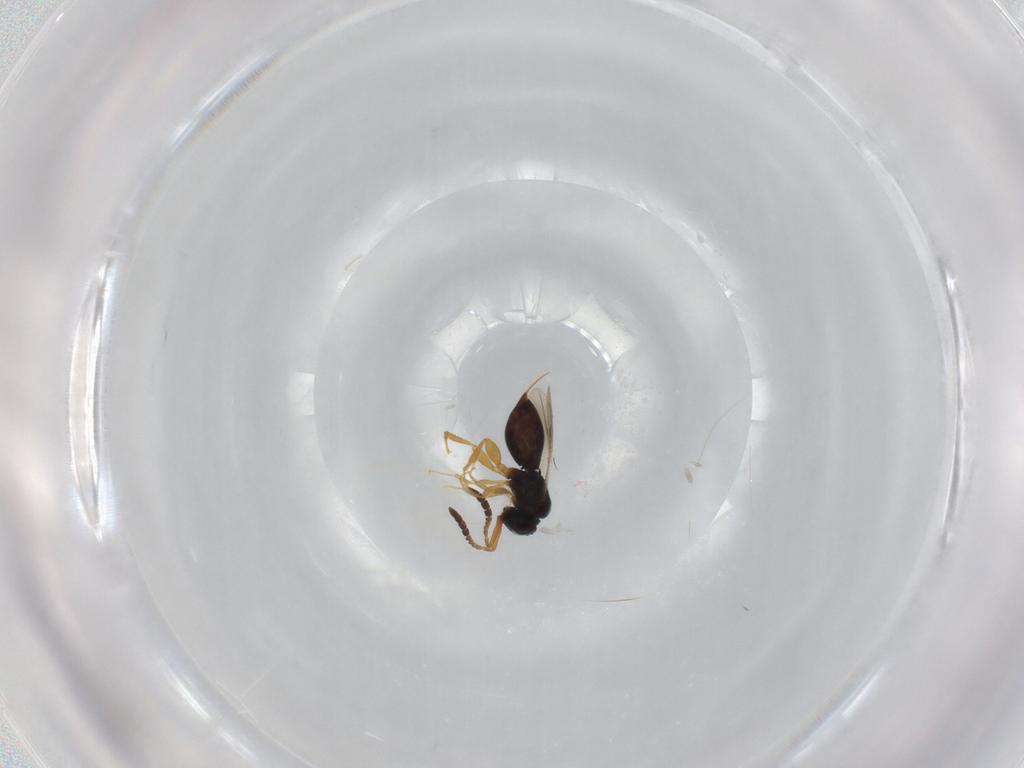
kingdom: Animalia
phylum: Arthropoda
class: Insecta
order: Hymenoptera
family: Ceraphronidae
